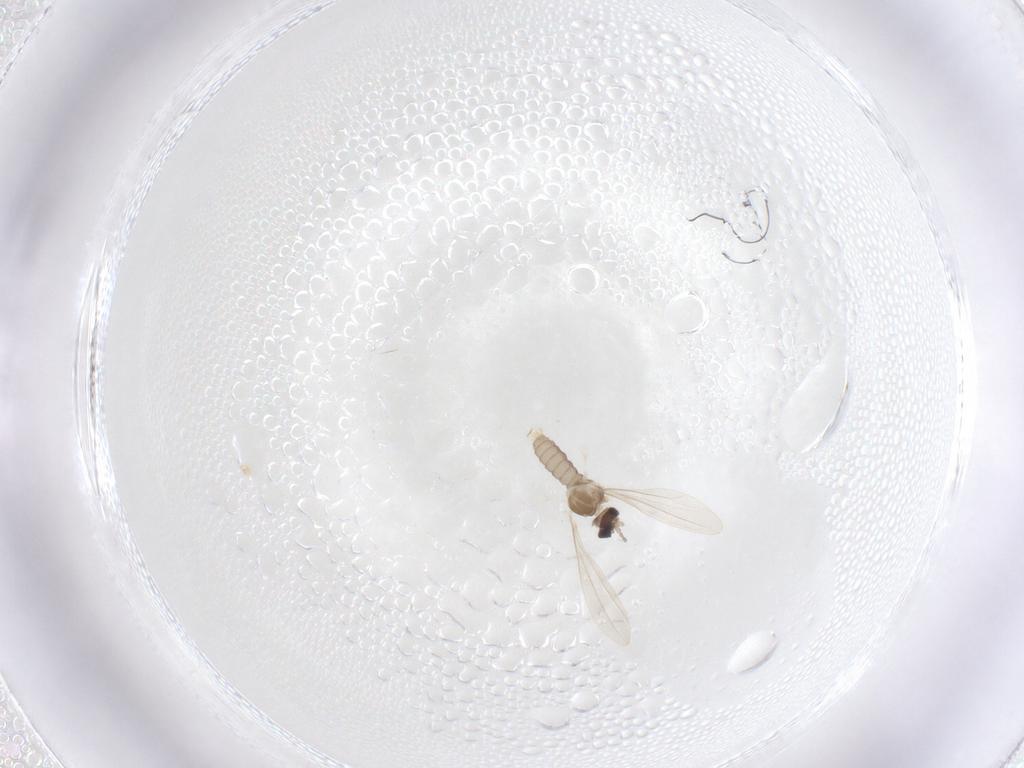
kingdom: Animalia
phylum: Arthropoda
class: Insecta
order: Diptera
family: Cecidomyiidae
